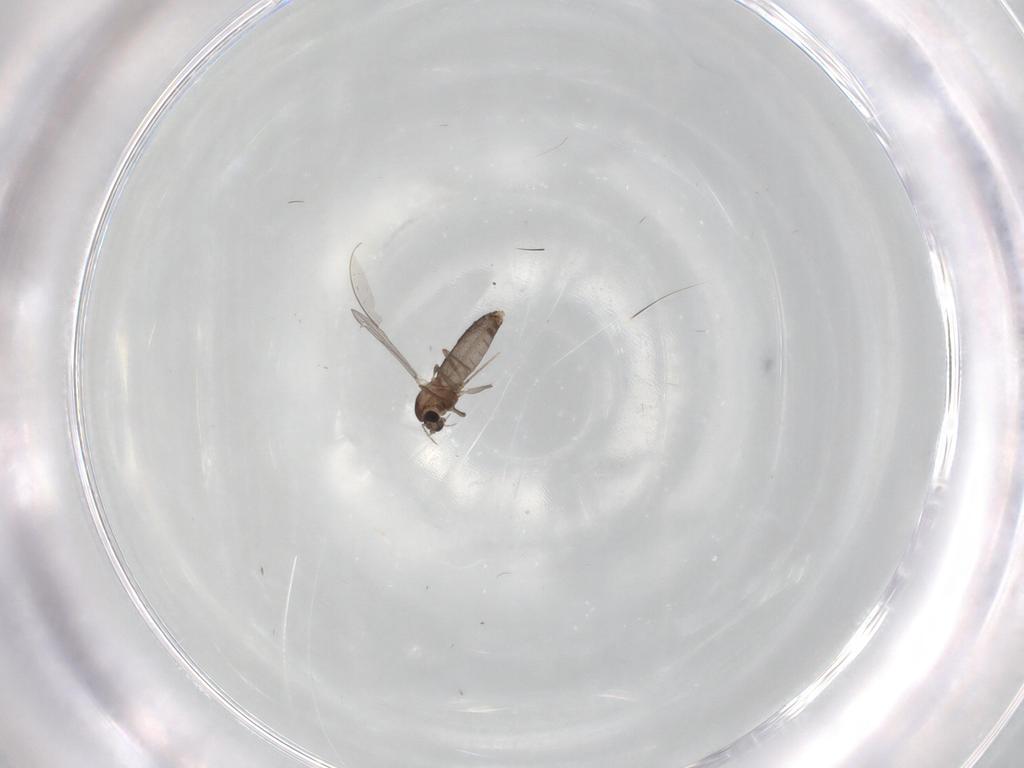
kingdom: Animalia
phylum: Arthropoda
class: Insecta
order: Diptera
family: Chironomidae
